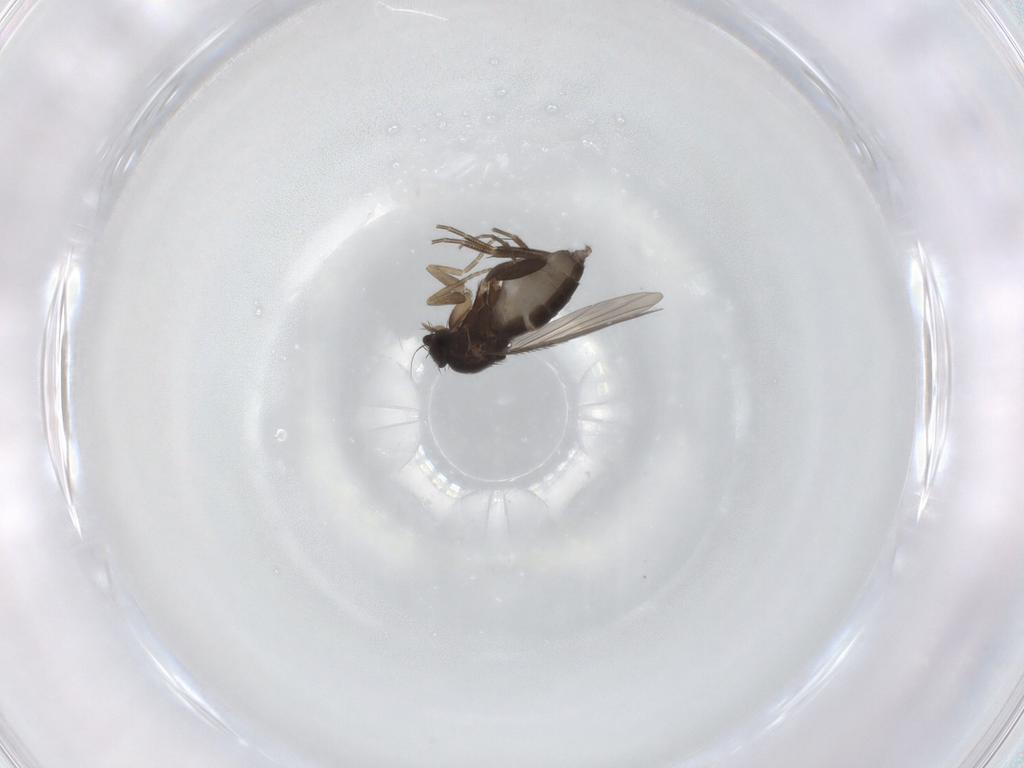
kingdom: Animalia
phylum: Arthropoda
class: Insecta
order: Diptera
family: Phoridae
